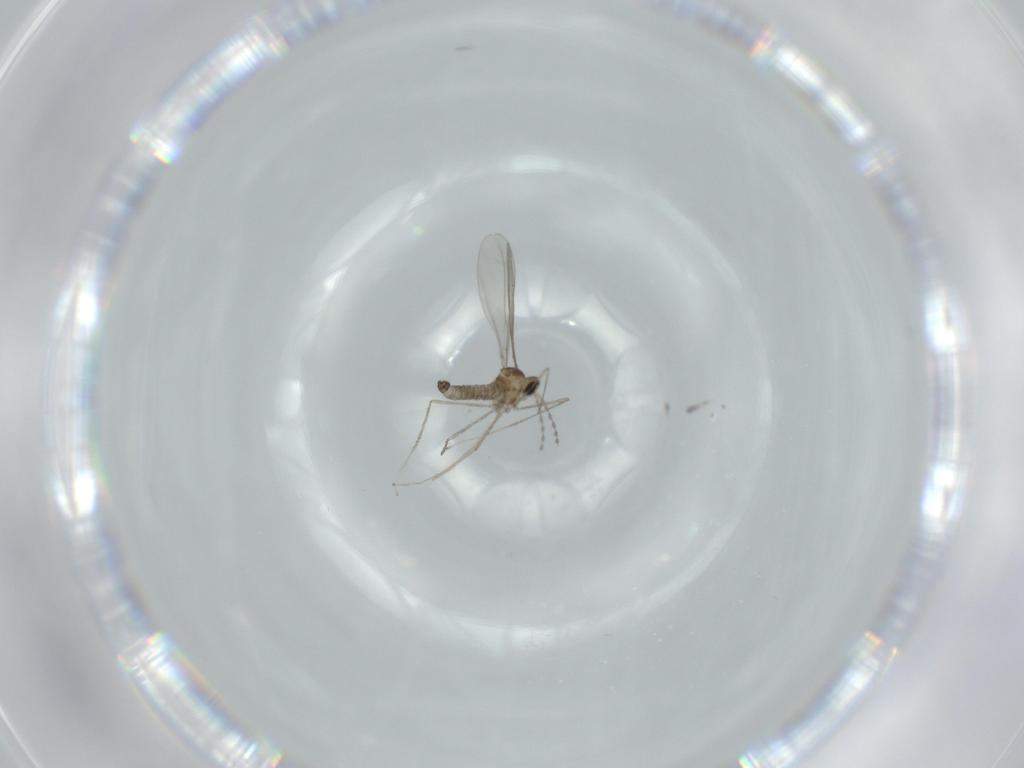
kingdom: Animalia
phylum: Arthropoda
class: Insecta
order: Diptera
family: Cecidomyiidae
